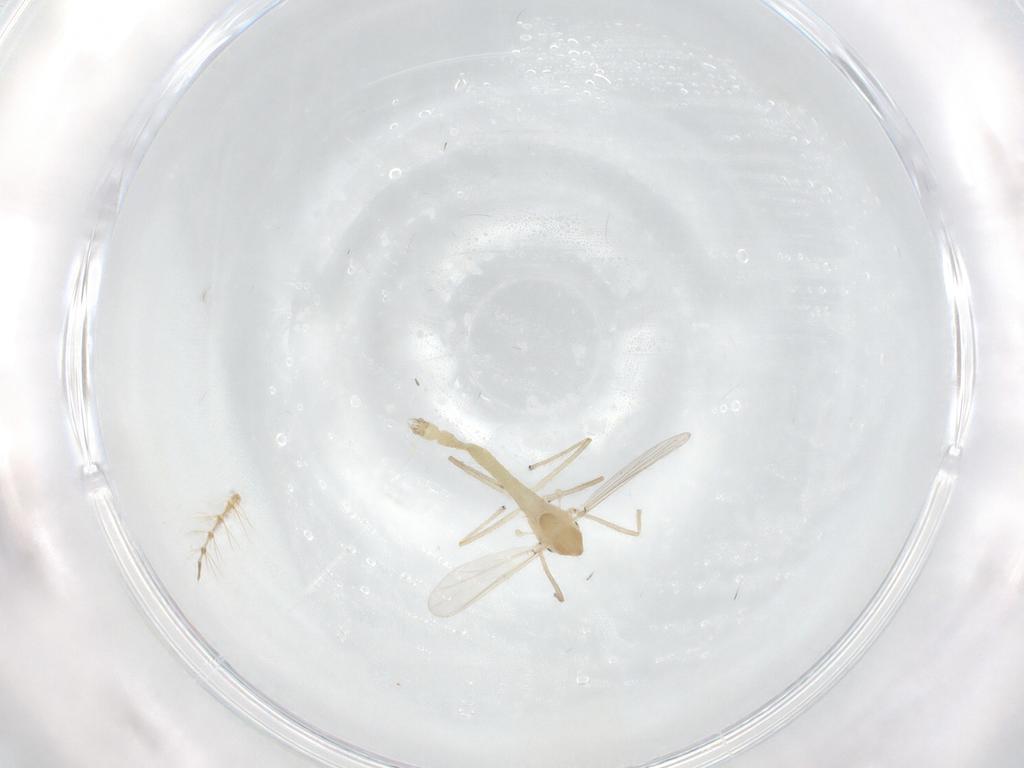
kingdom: Animalia
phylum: Arthropoda
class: Insecta
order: Diptera
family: Chironomidae
